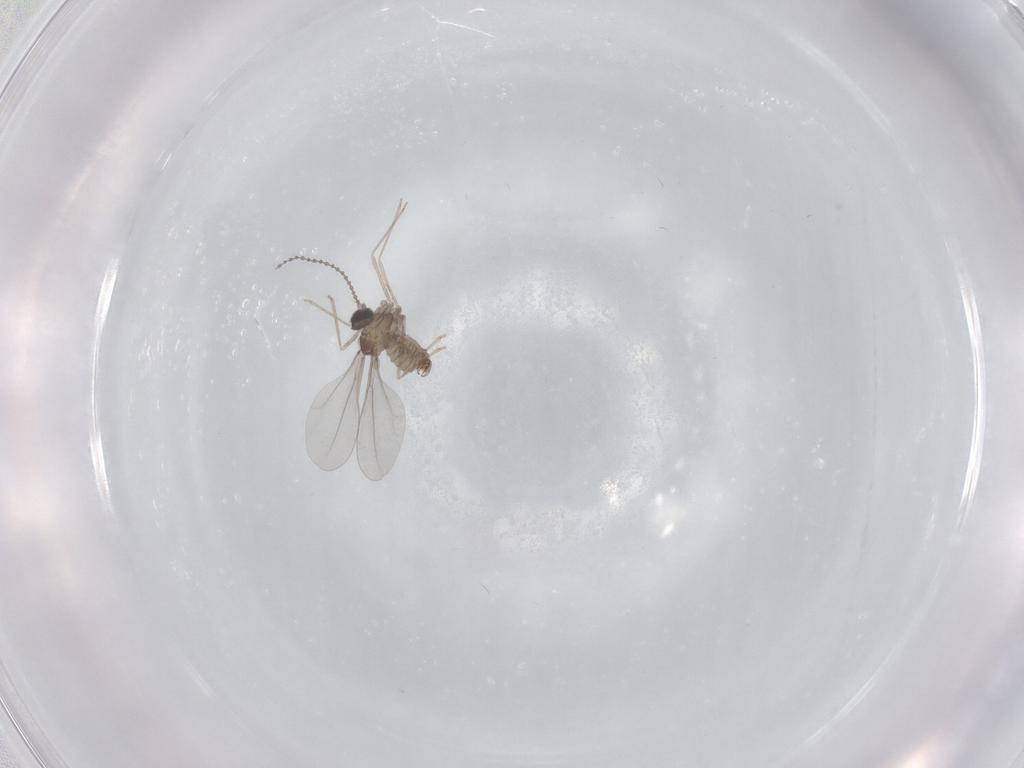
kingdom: Animalia
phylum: Arthropoda
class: Insecta
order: Diptera
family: Cecidomyiidae
